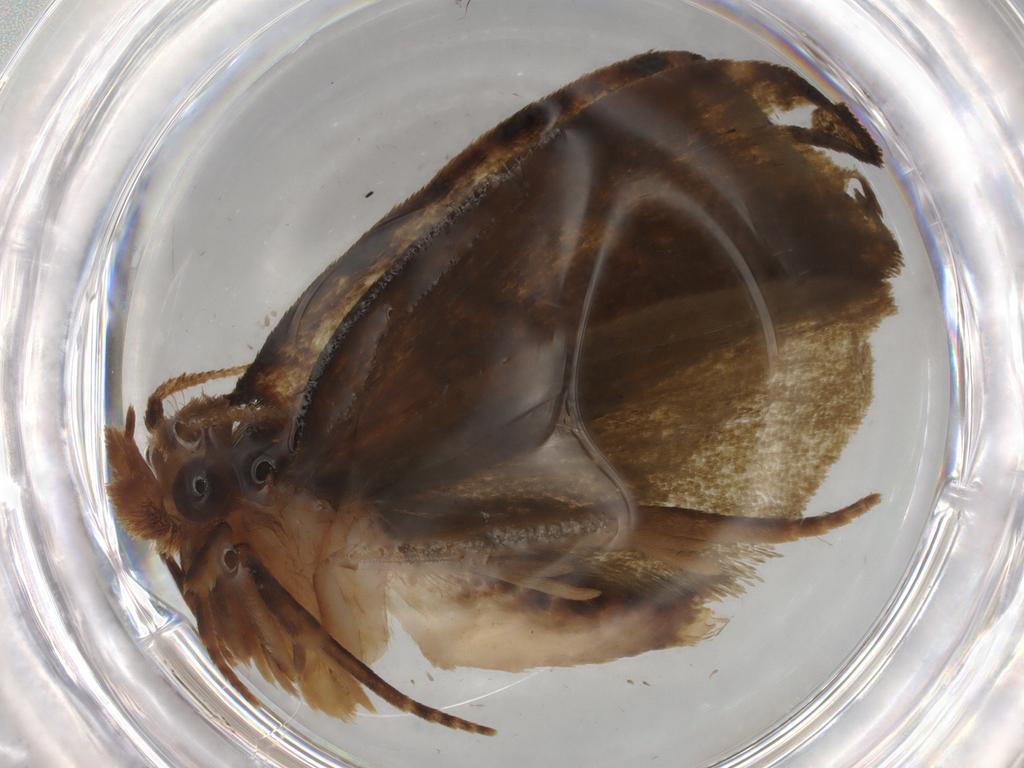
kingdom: Animalia
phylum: Arthropoda
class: Insecta
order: Lepidoptera
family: Geometridae
